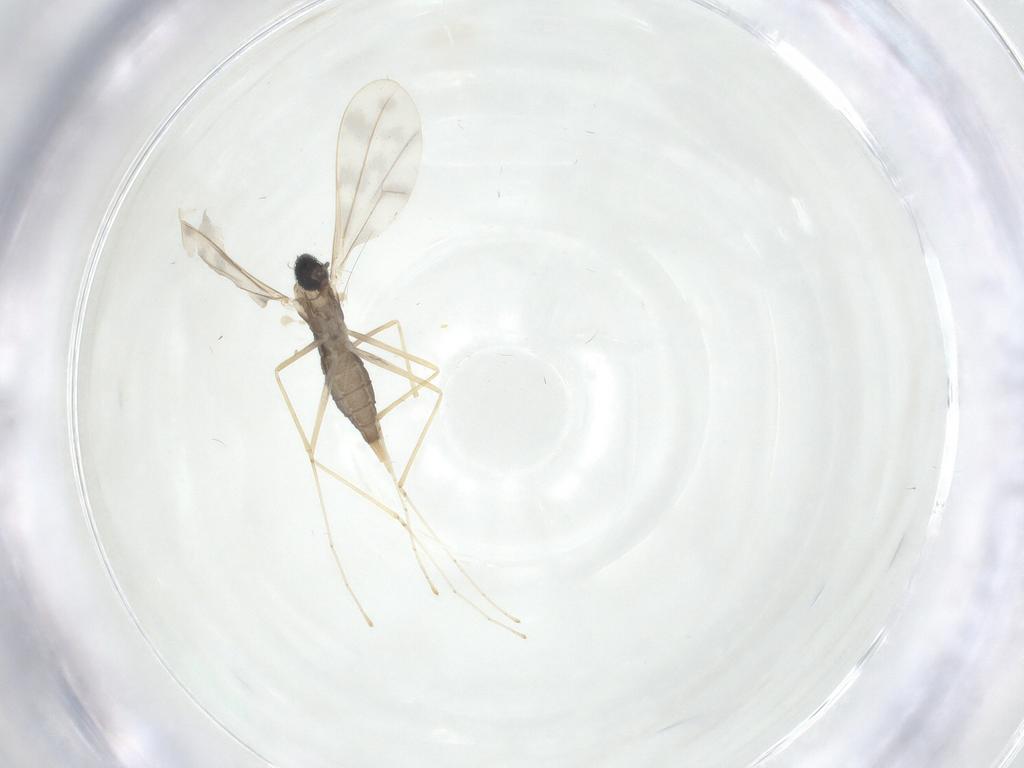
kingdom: Animalia
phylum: Arthropoda
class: Insecta
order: Diptera
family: Cecidomyiidae
